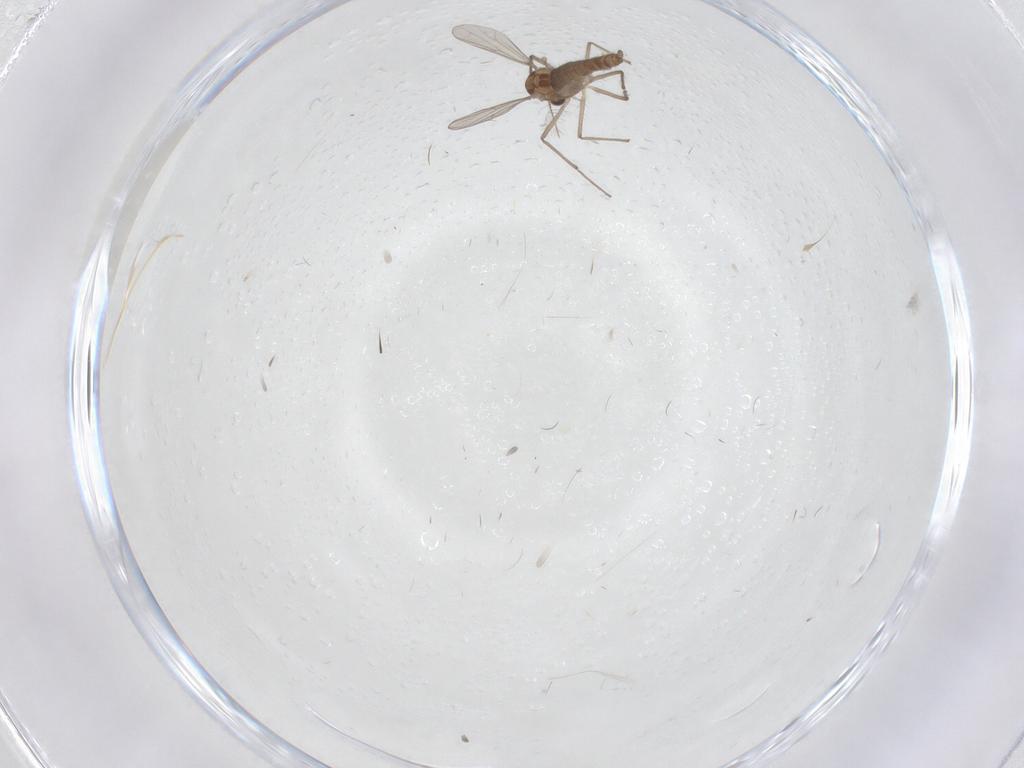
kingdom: Animalia
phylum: Arthropoda
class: Insecta
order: Diptera
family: Chironomidae
